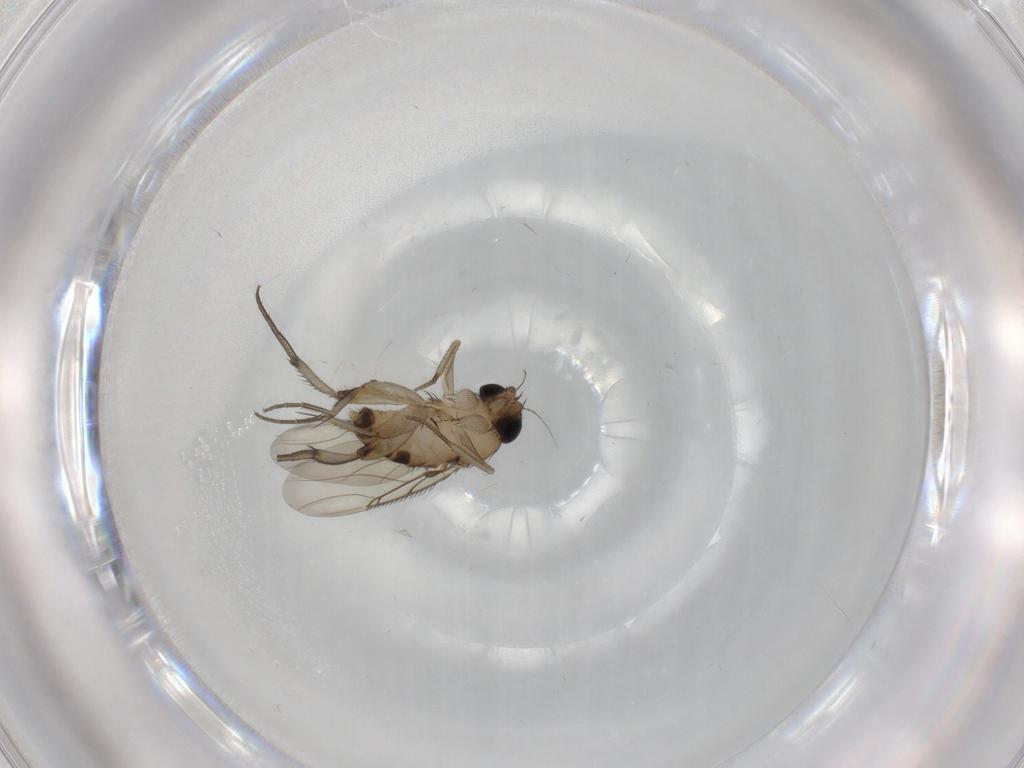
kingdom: Animalia
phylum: Arthropoda
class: Insecta
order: Diptera
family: Phoridae
